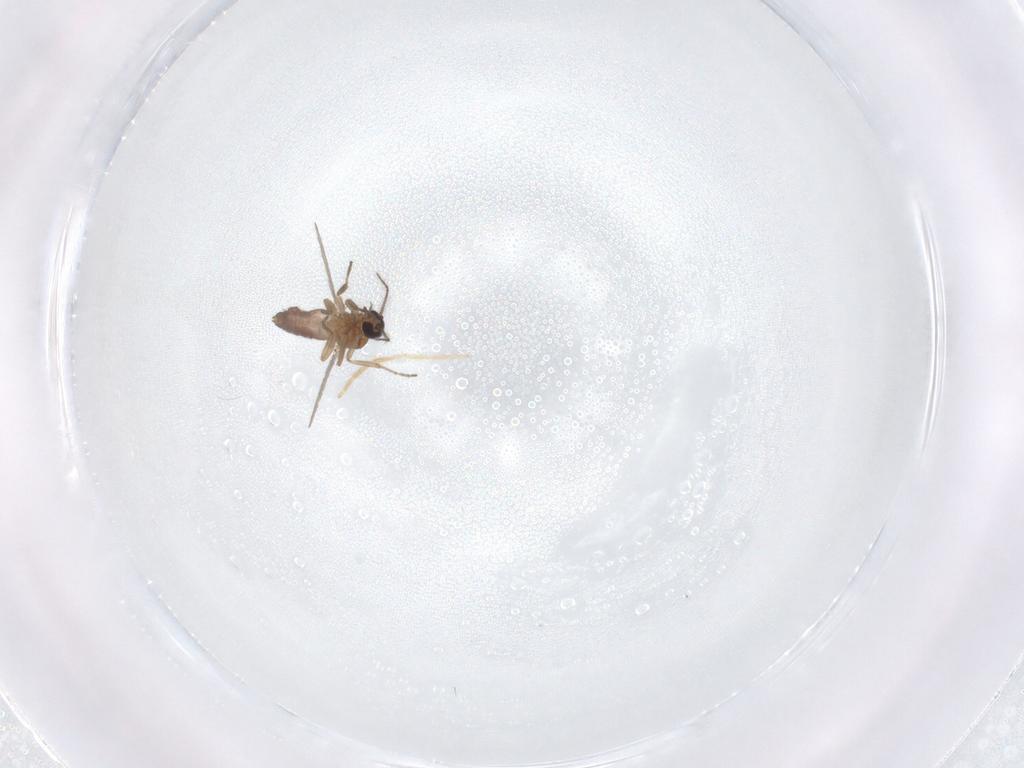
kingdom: Animalia
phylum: Arthropoda
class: Insecta
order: Diptera
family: Chironomidae
